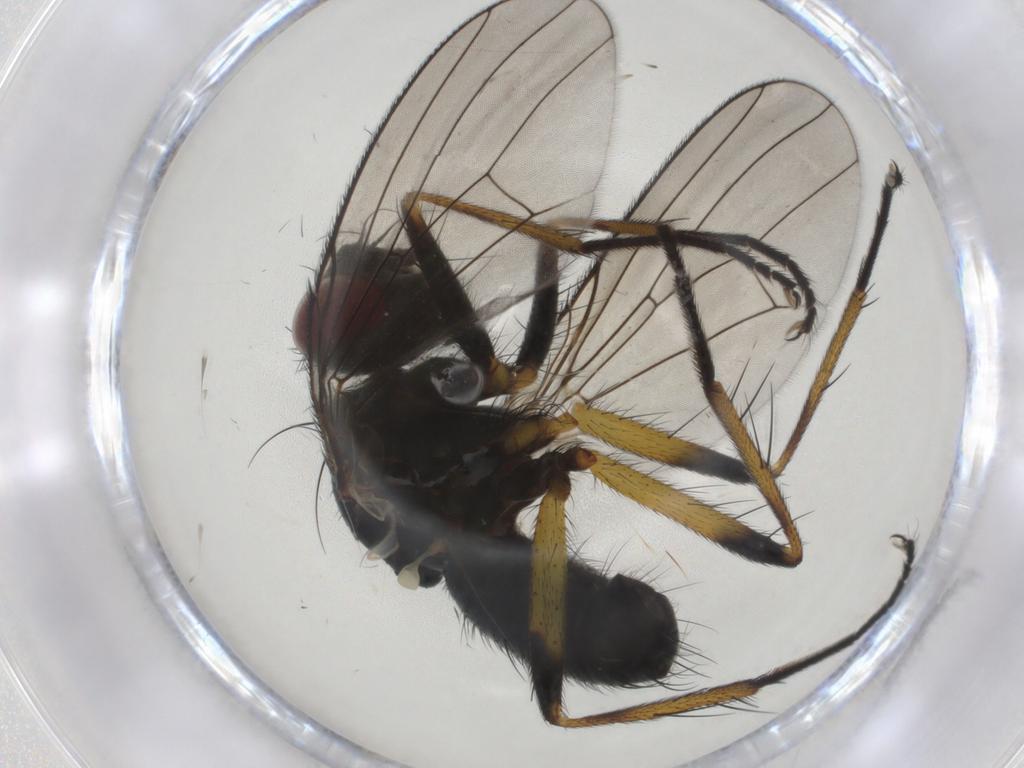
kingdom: Animalia
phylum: Arthropoda
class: Insecta
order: Diptera
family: Muscidae
